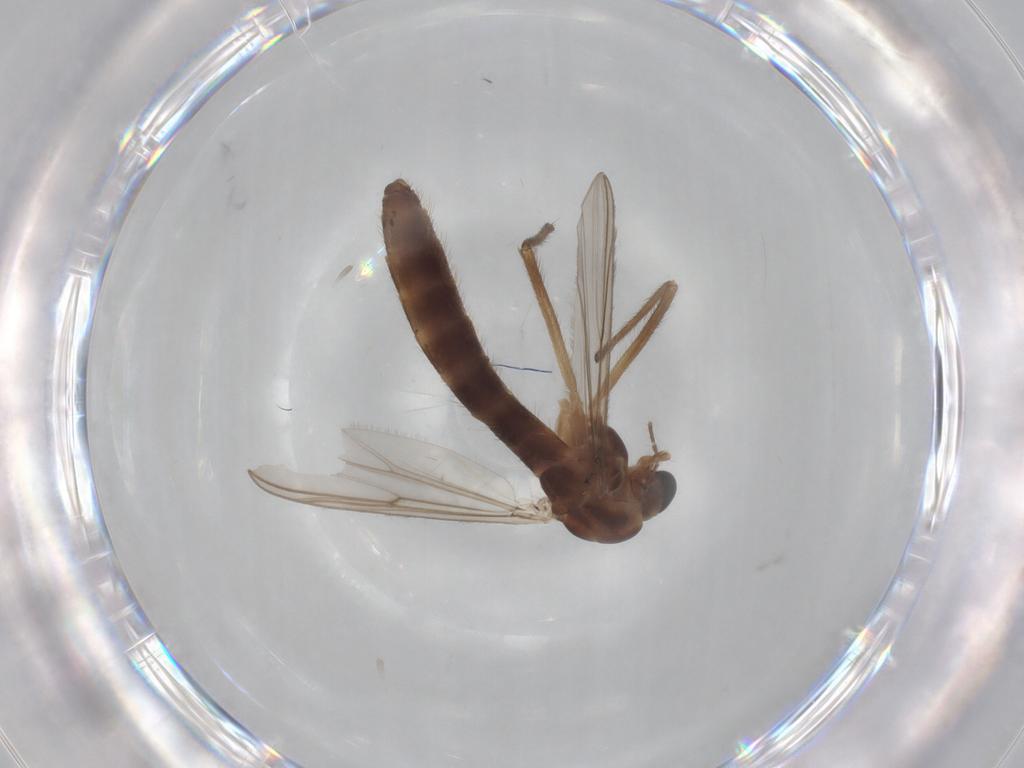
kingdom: Animalia
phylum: Arthropoda
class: Insecta
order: Diptera
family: Chironomidae
